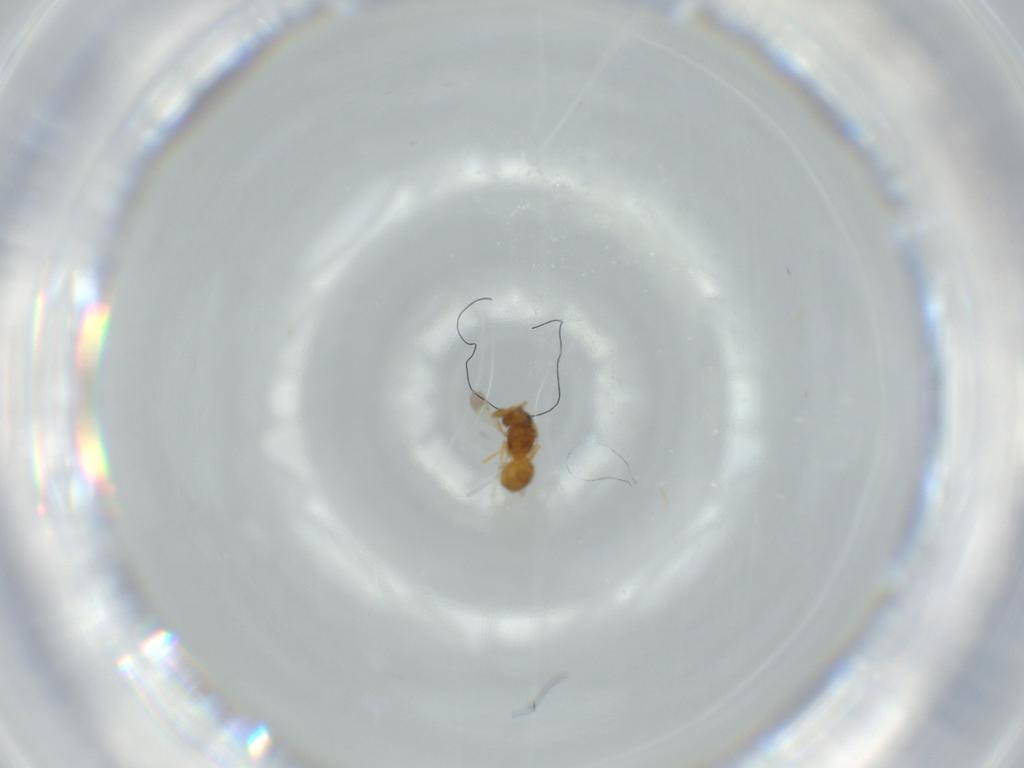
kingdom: Animalia
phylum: Arthropoda
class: Insecta
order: Hymenoptera
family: Scelionidae
